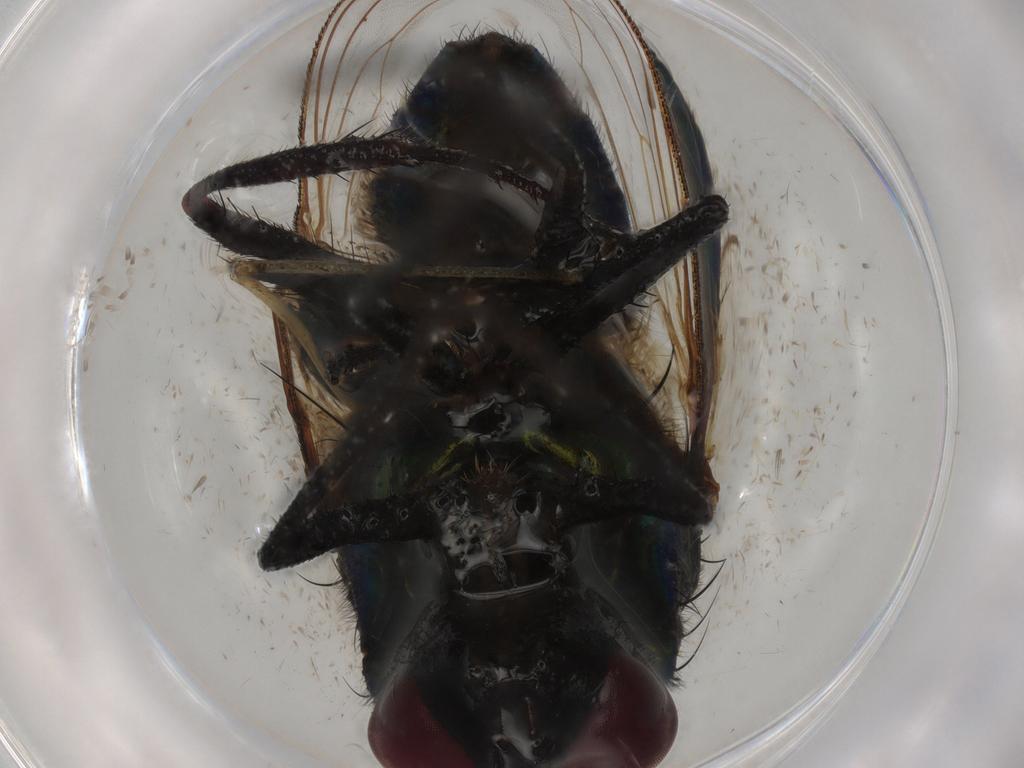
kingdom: Animalia
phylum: Arthropoda
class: Insecta
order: Diptera
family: Muscidae
